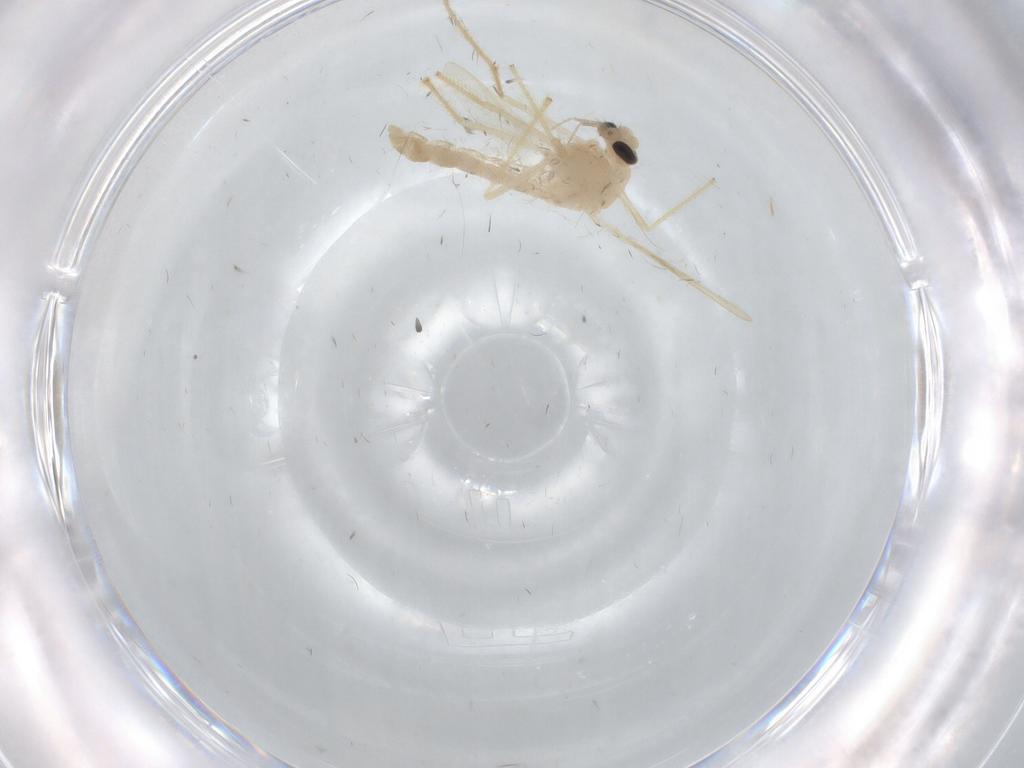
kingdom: Animalia
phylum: Arthropoda
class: Insecta
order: Diptera
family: Chironomidae
